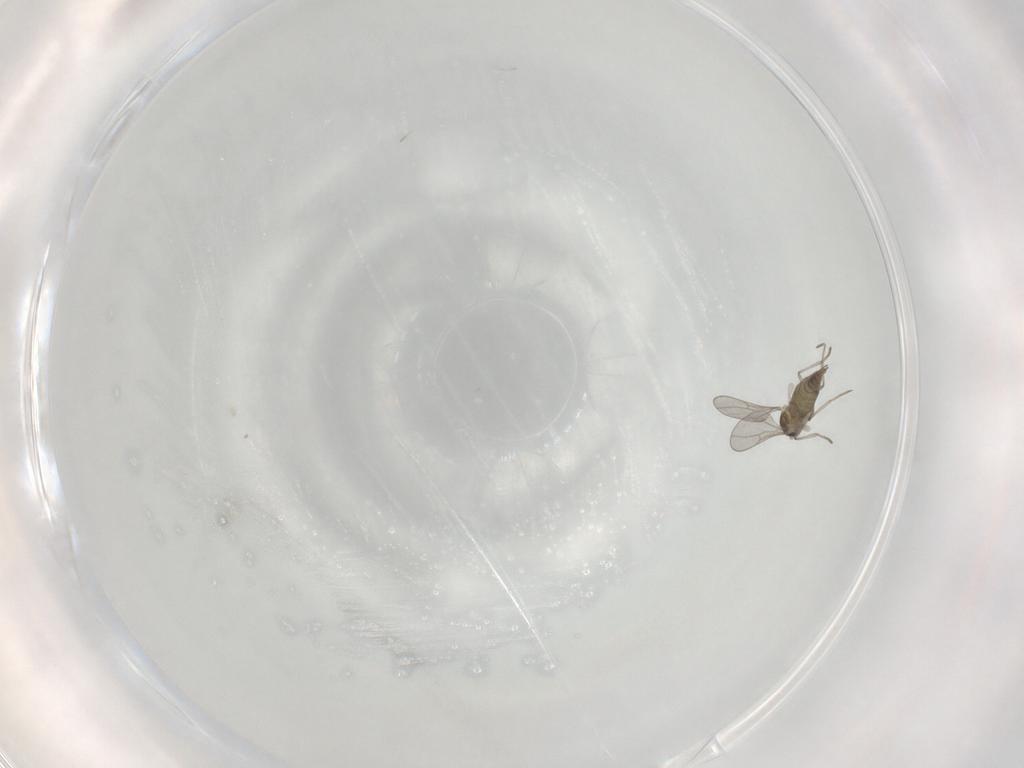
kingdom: Animalia
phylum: Arthropoda
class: Insecta
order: Diptera
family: Cecidomyiidae
